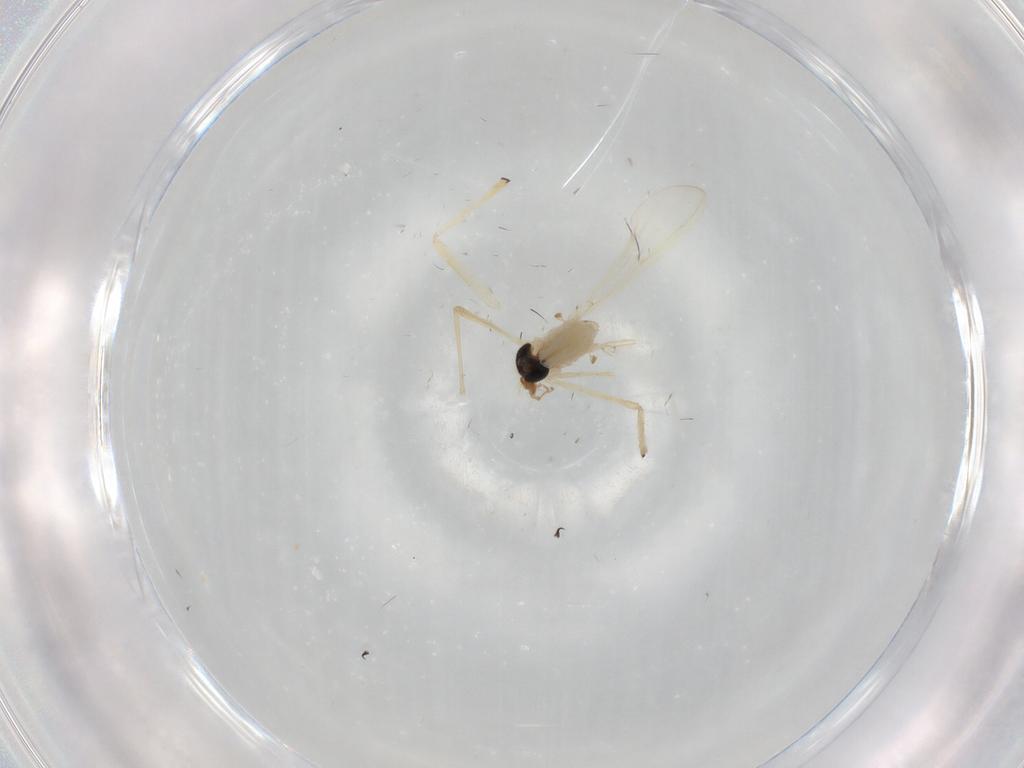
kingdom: Animalia
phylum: Arthropoda
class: Insecta
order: Diptera
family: Chironomidae
